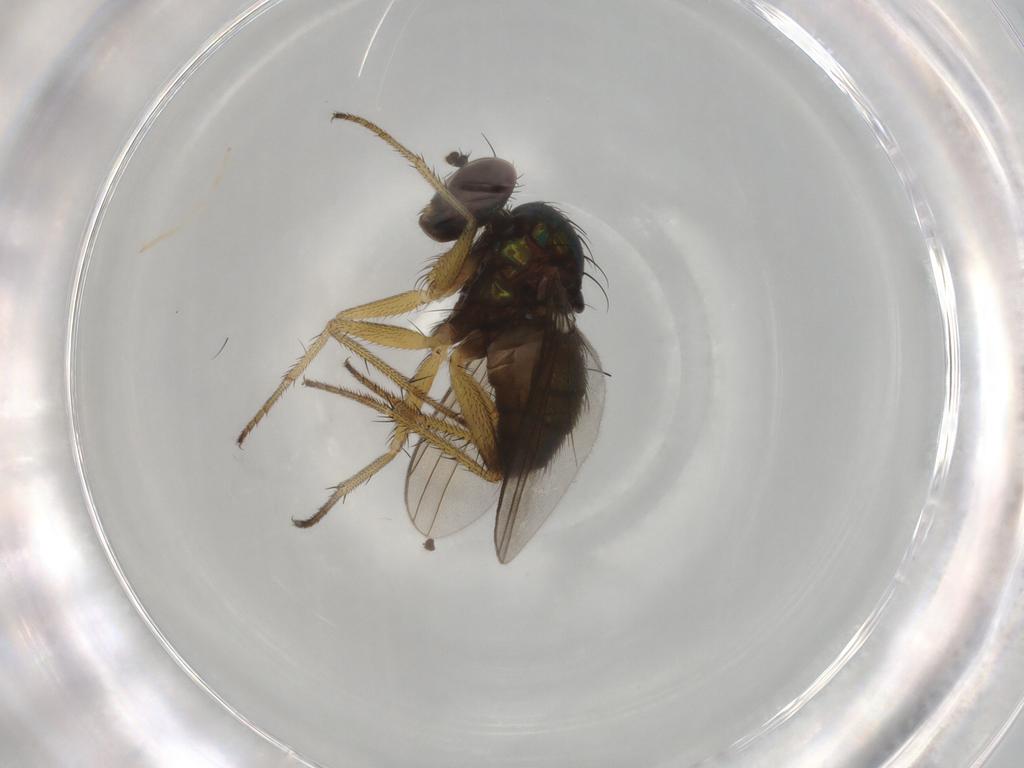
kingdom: Animalia
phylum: Arthropoda
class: Insecta
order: Diptera
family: Dolichopodidae
